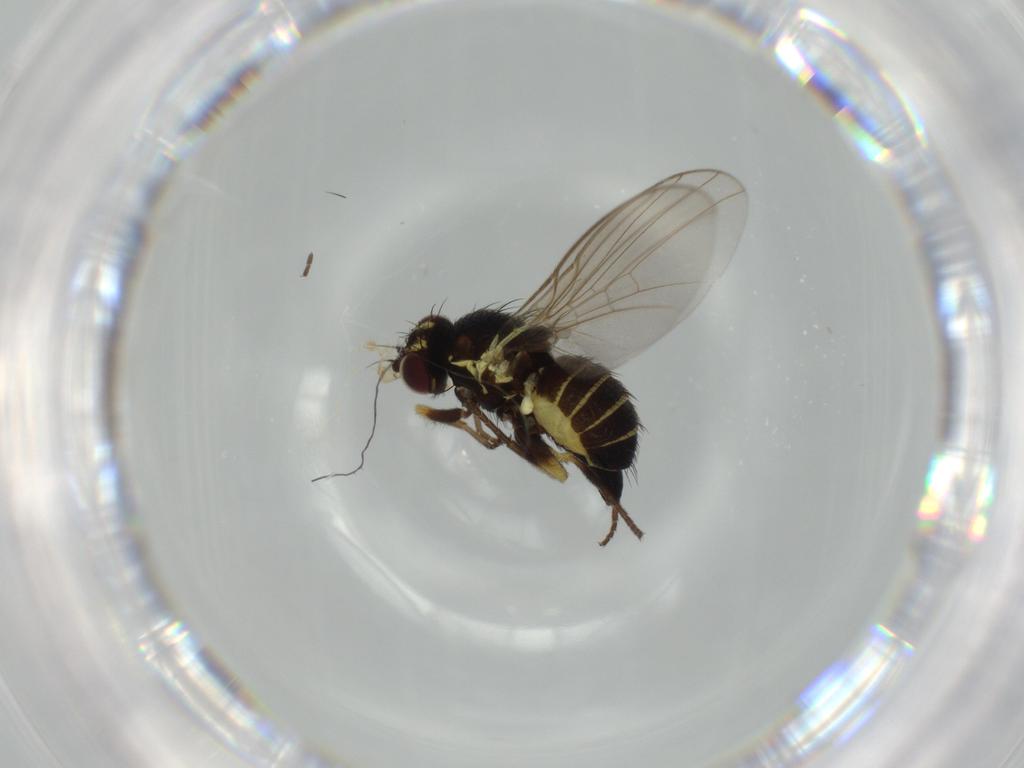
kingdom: Animalia
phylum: Arthropoda
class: Insecta
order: Diptera
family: Agromyzidae
